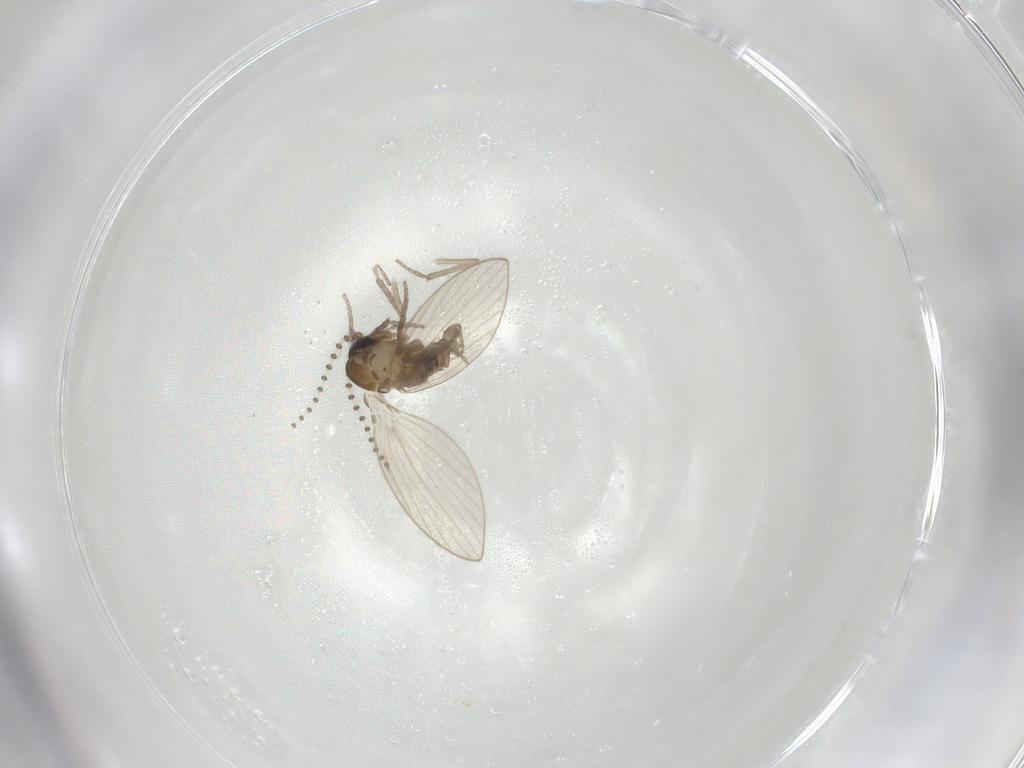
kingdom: Animalia
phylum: Arthropoda
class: Insecta
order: Diptera
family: Psychodidae
